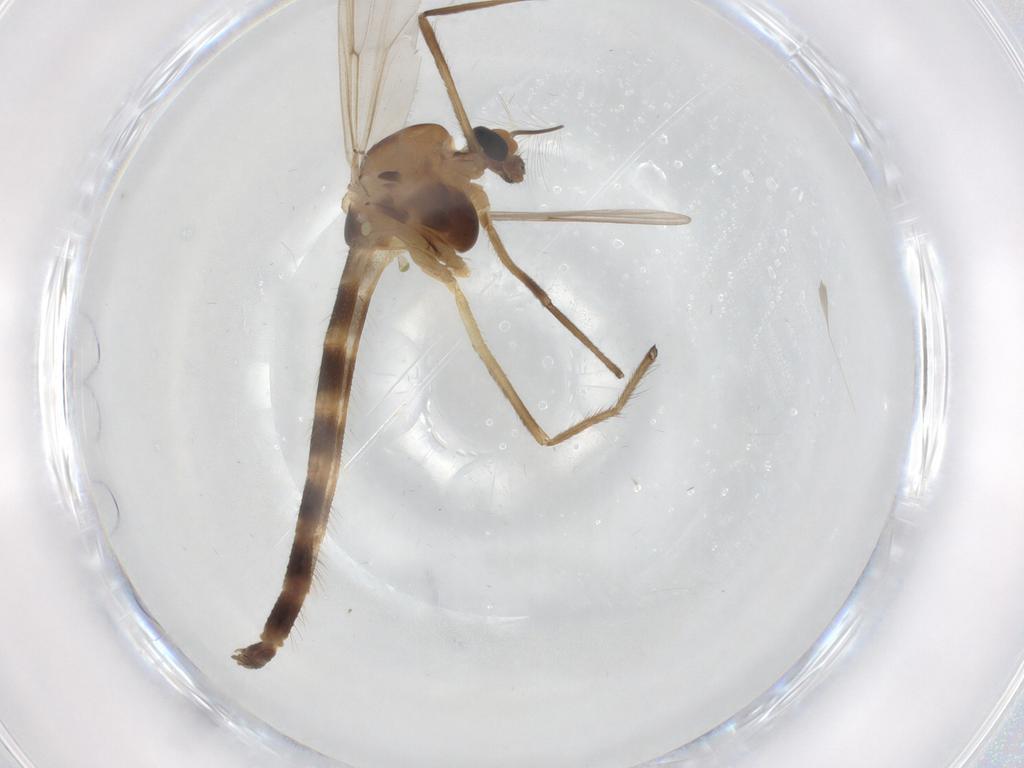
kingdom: Animalia
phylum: Arthropoda
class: Insecta
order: Diptera
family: Chironomidae
